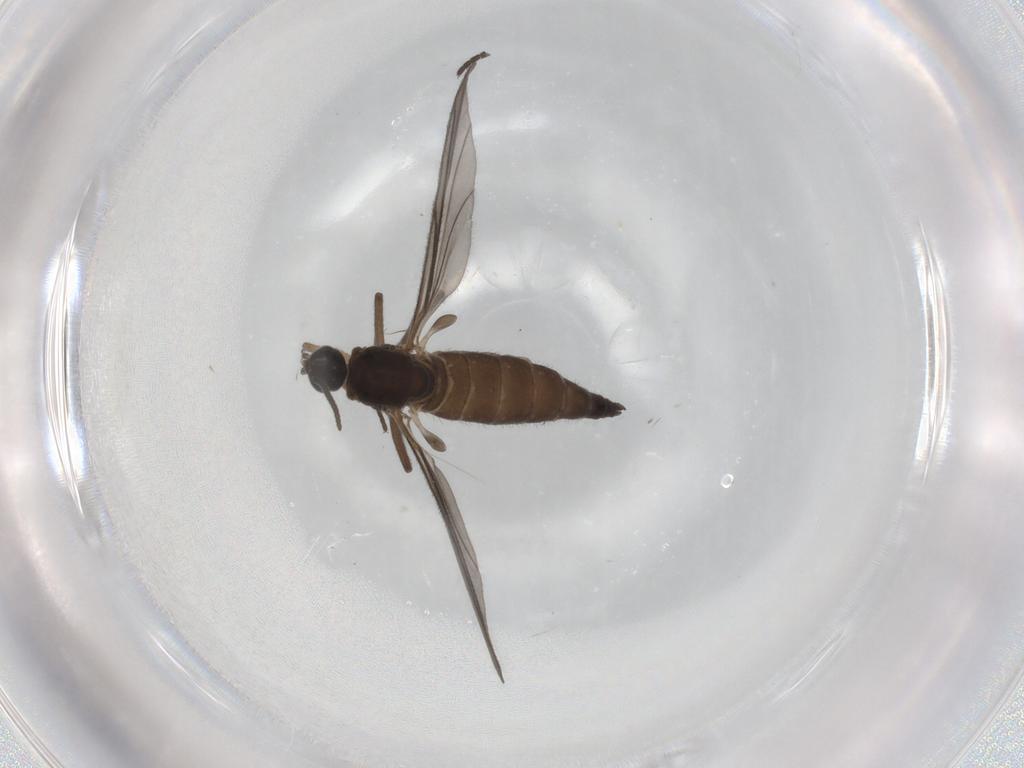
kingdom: Animalia
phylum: Arthropoda
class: Insecta
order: Diptera
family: Sciaridae
